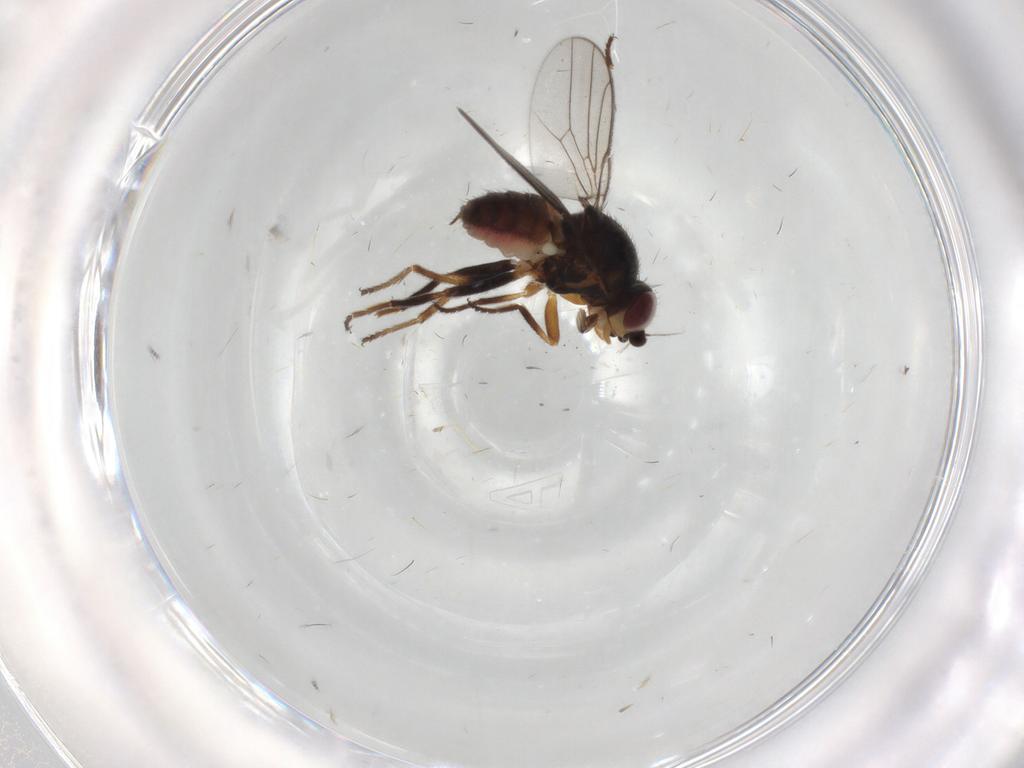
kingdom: Animalia
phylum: Arthropoda
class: Insecta
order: Diptera
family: Chloropidae
